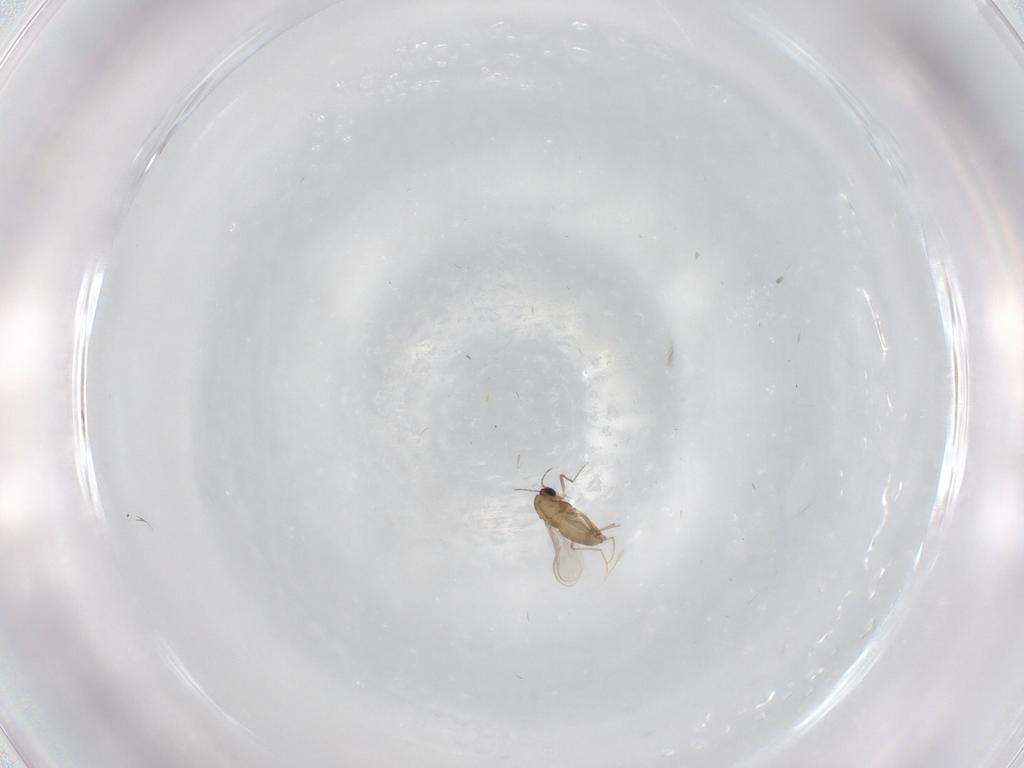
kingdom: Animalia
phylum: Arthropoda
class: Insecta
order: Diptera
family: Chironomidae
